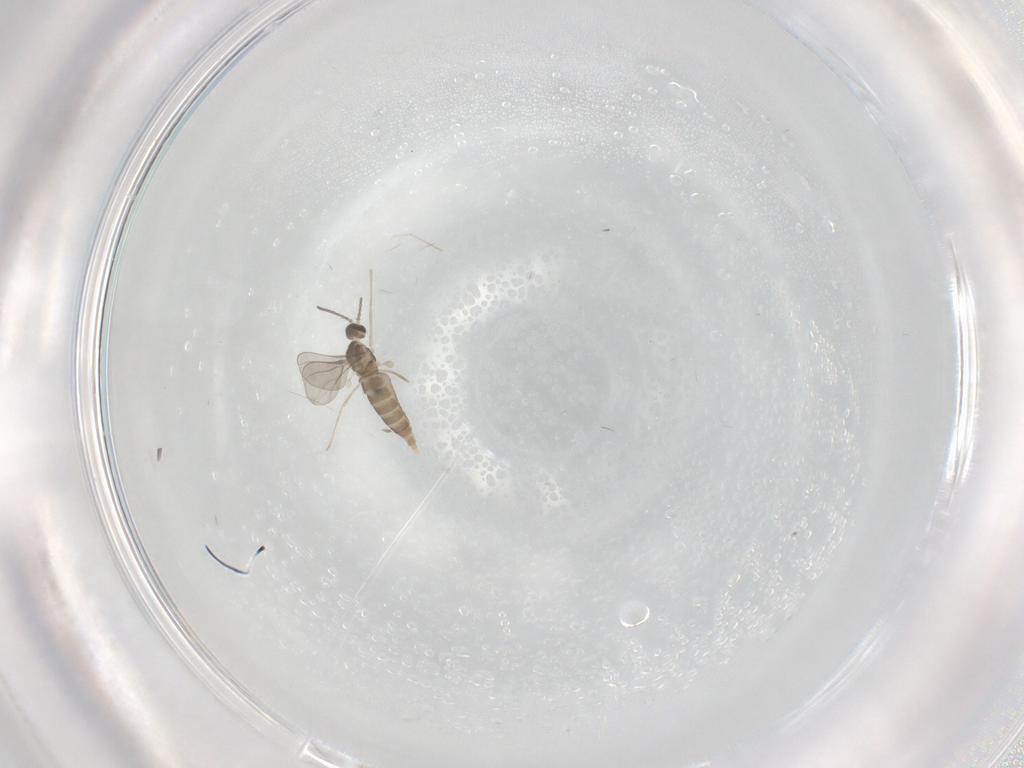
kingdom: Animalia
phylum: Arthropoda
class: Insecta
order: Diptera
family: Cecidomyiidae
